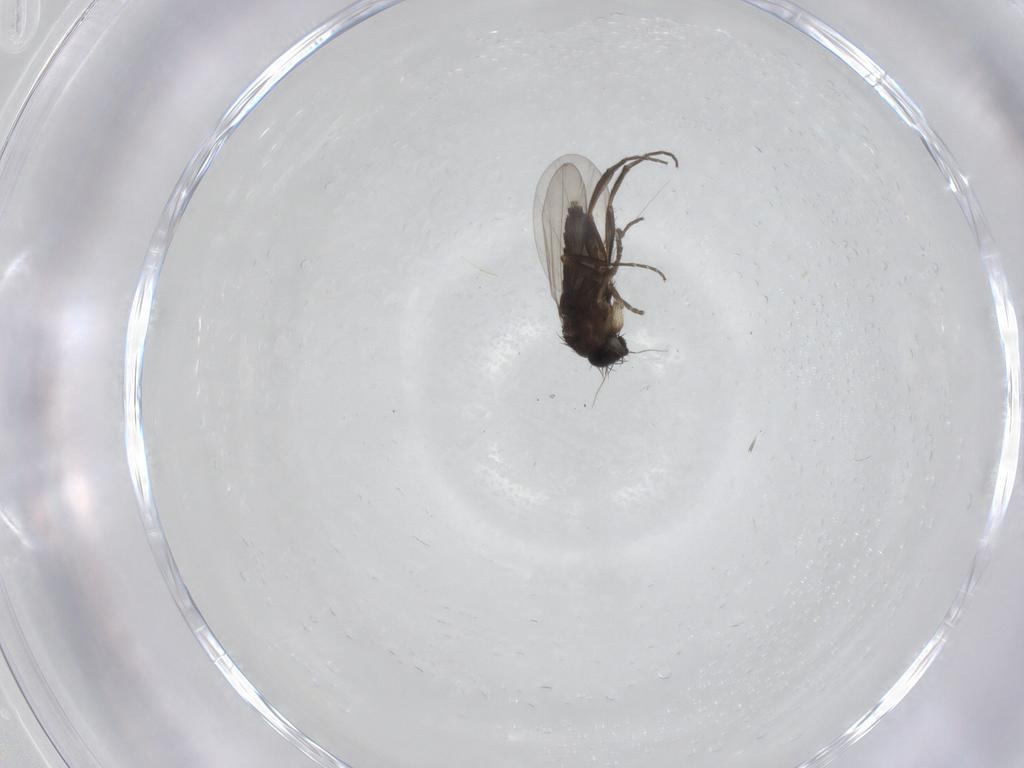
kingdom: Animalia
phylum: Arthropoda
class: Insecta
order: Diptera
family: Phoridae
